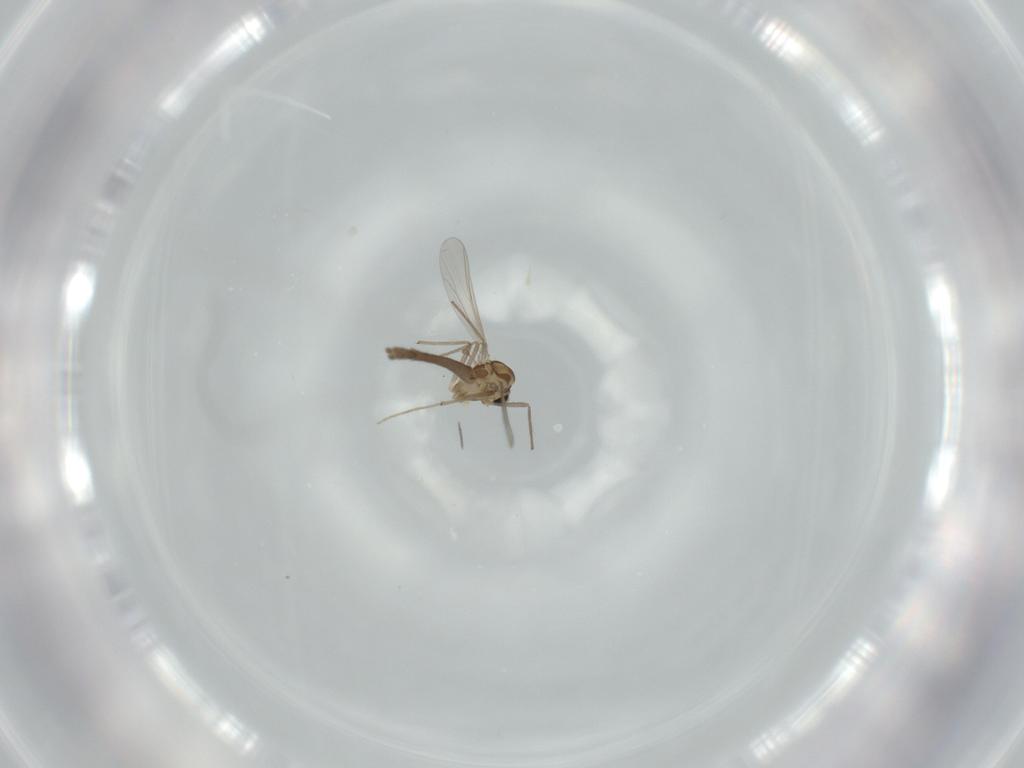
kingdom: Animalia
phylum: Arthropoda
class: Insecta
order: Diptera
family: Chironomidae
